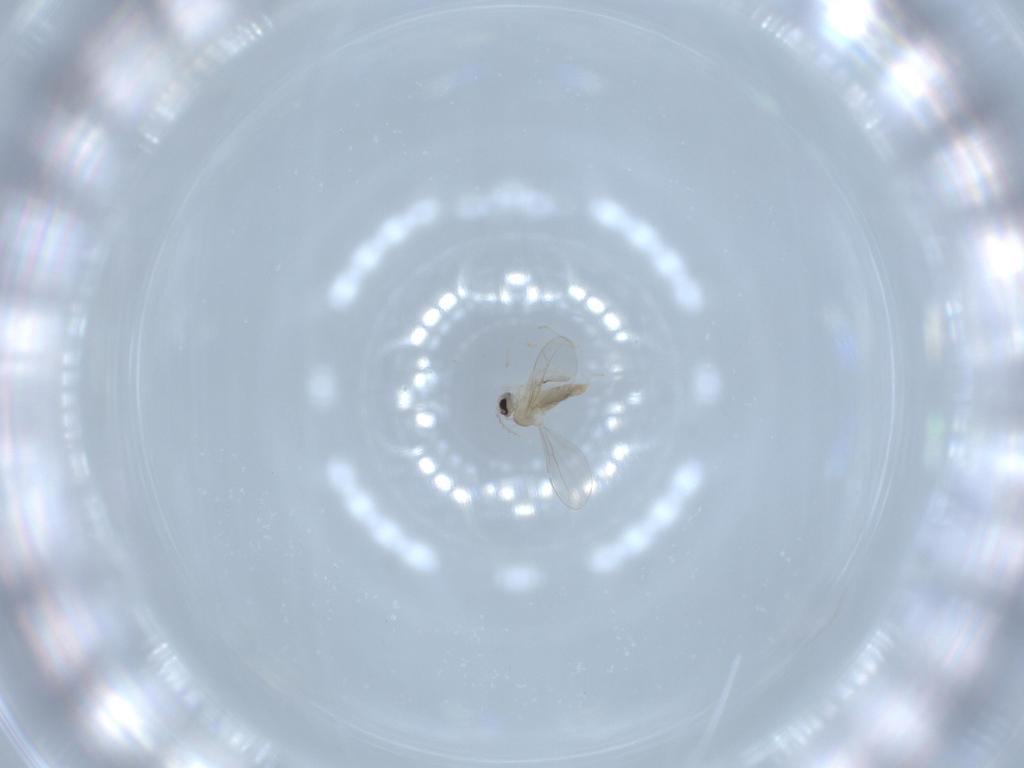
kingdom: Animalia
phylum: Arthropoda
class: Insecta
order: Diptera
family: Cecidomyiidae
